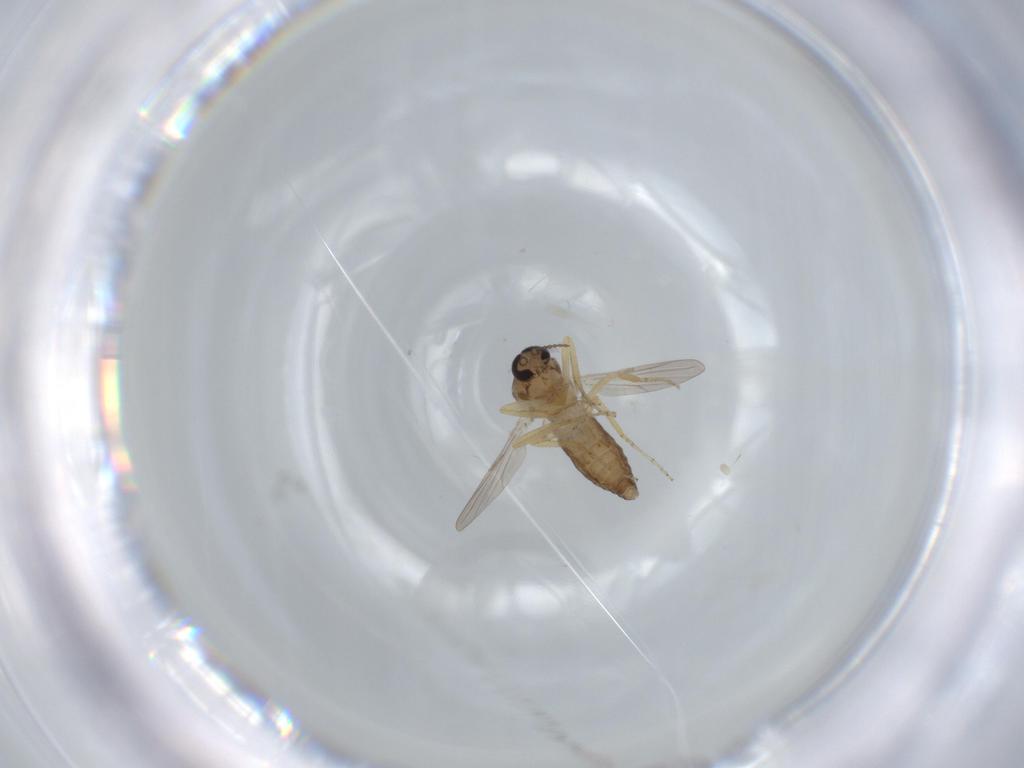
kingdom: Animalia
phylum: Arthropoda
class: Insecta
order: Diptera
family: Ceratopogonidae
